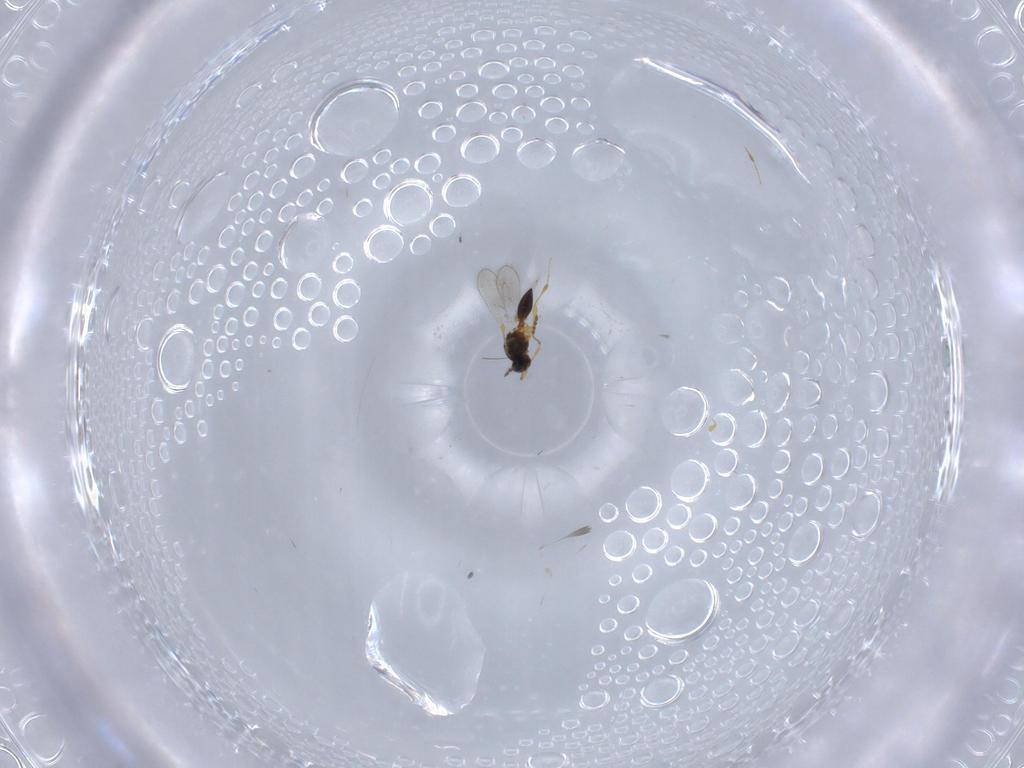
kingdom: Animalia
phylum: Arthropoda
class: Insecta
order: Hymenoptera
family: Platygastridae
